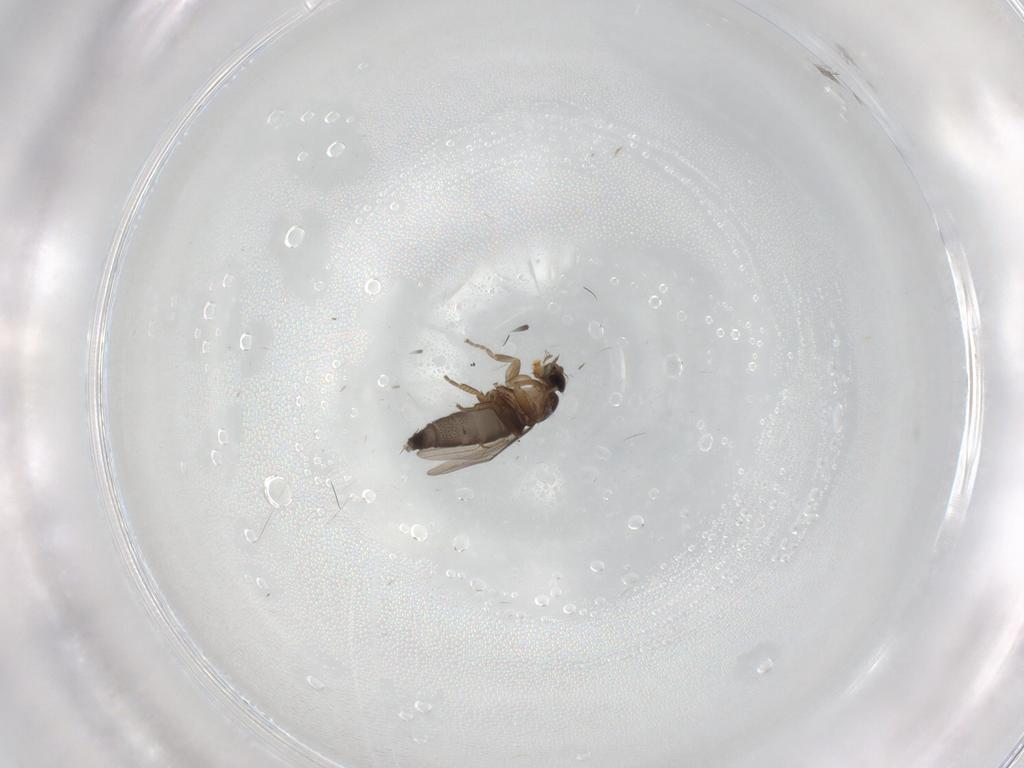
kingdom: Animalia
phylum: Arthropoda
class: Insecta
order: Diptera
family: Phoridae
